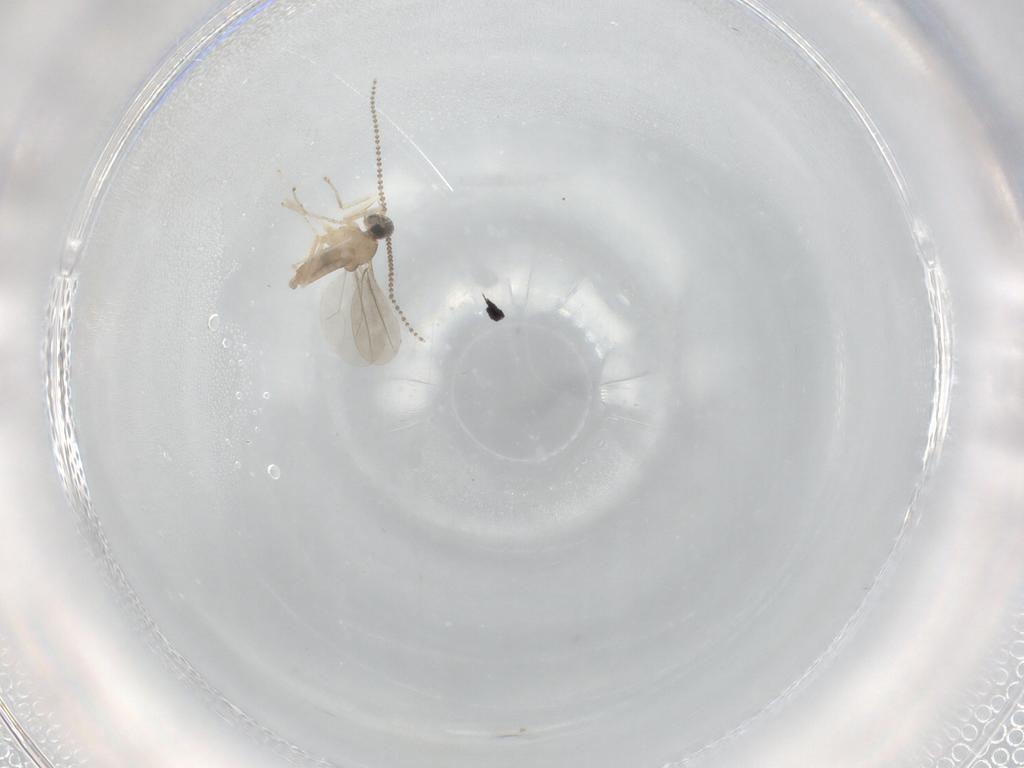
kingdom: Animalia
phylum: Arthropoda
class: Insecta
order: Diptera
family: Cecidomyiidae
